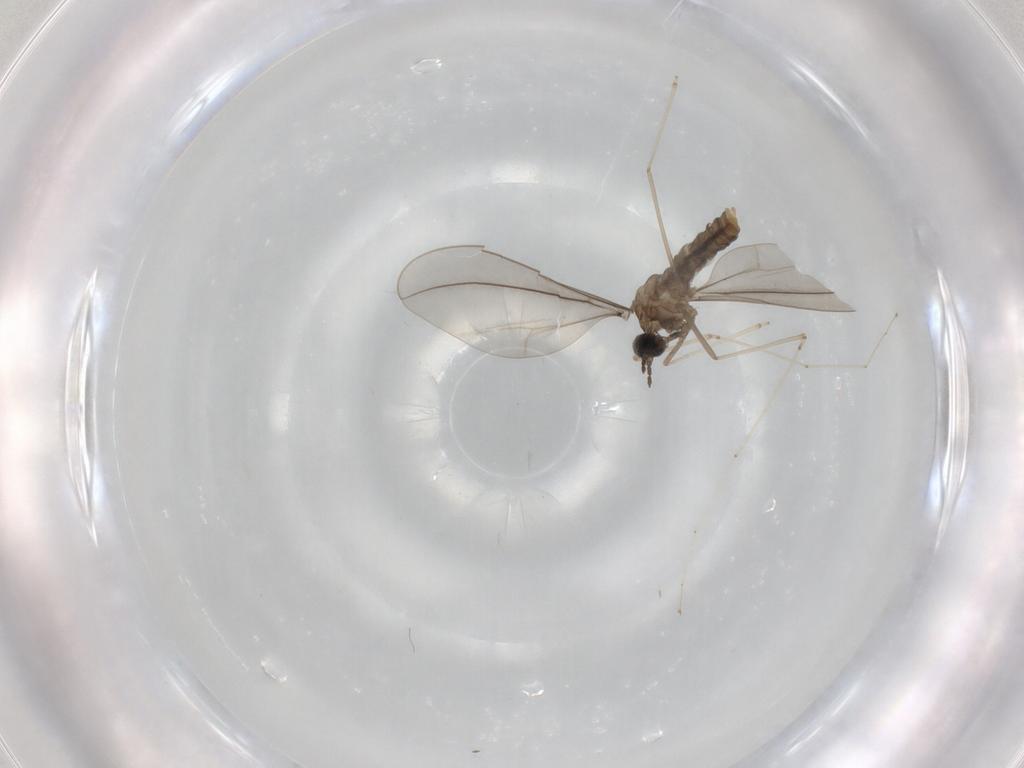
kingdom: Animalia
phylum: Arthropoda
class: Insecta
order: Diptera
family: Cecidomyiidae
